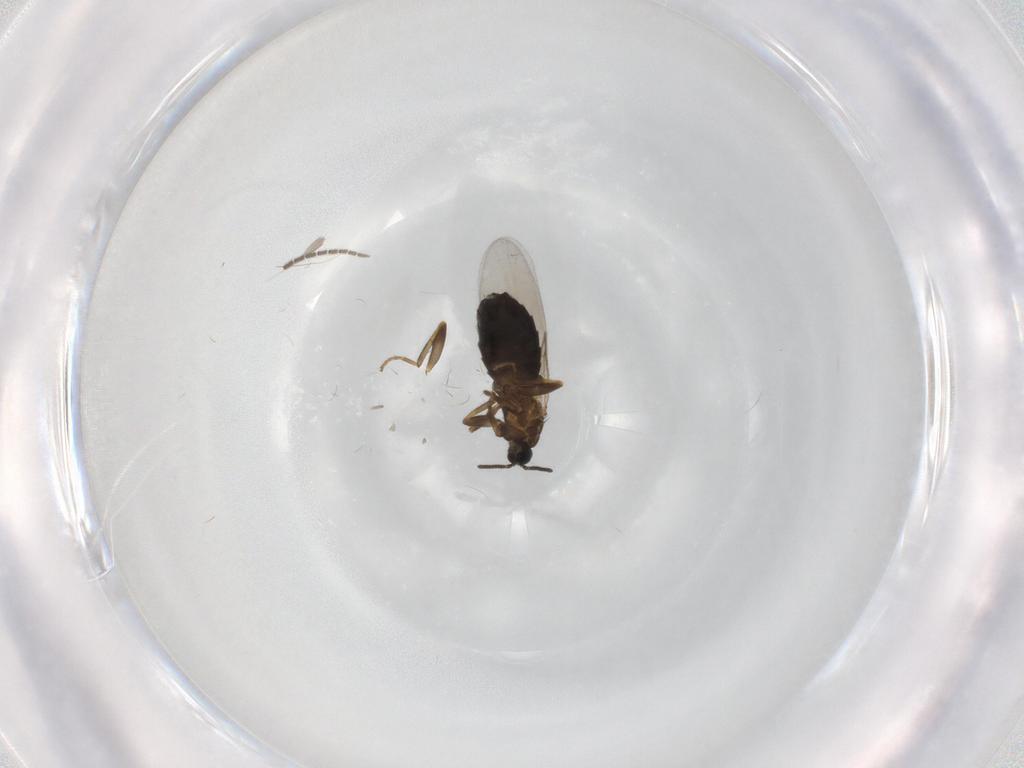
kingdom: Animalia
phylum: Arthropoda
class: Insecta
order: Diptera
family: Scatopsidae
